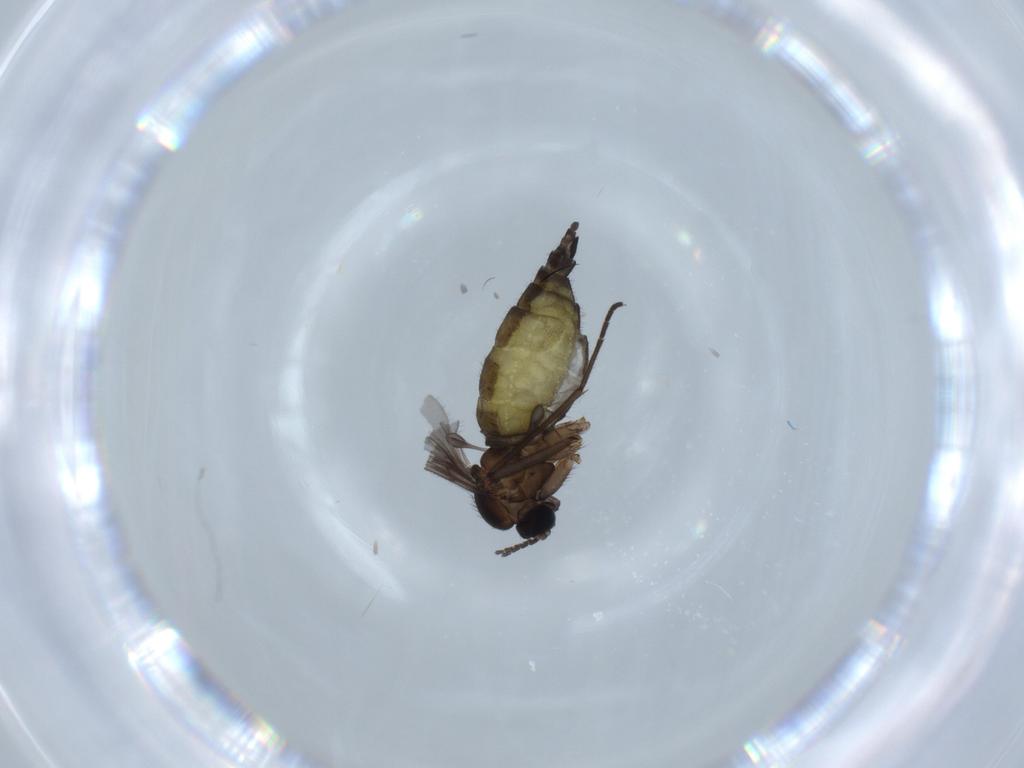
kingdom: Animalia
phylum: Arthropoda
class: Insecta
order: Diptera
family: Sciaridae
